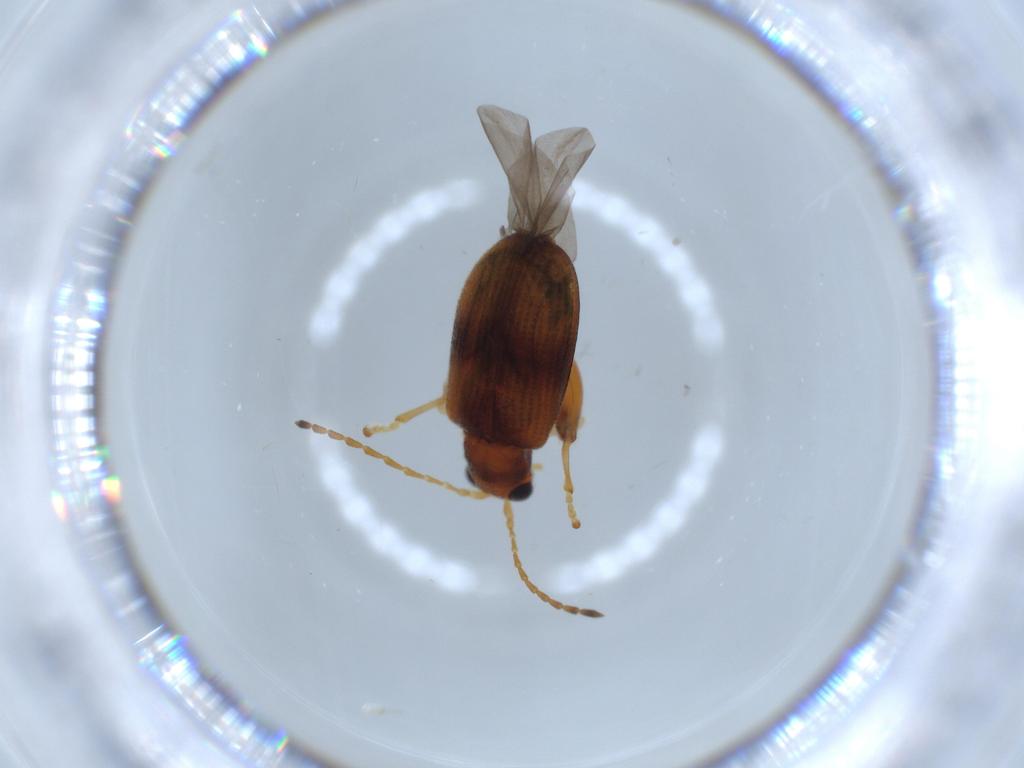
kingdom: Animalia
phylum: Arthropoda
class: Insecta
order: Coleoptera
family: Chrysomelidae
